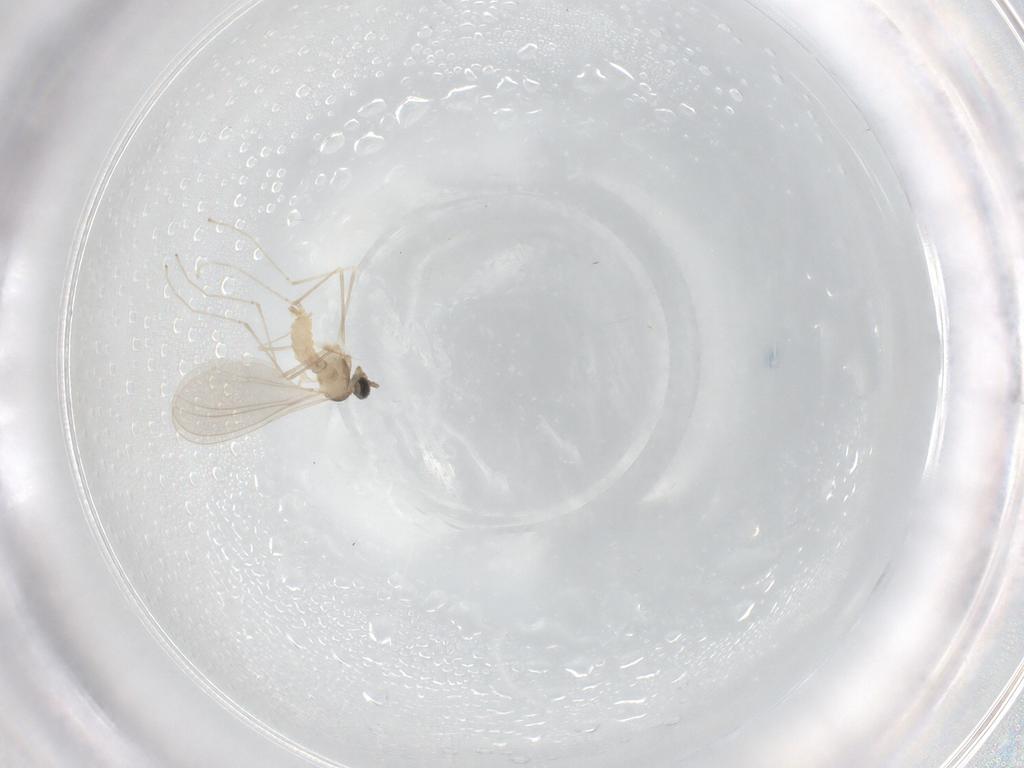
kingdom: Animalia
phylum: Arthropoda
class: Insecta
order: Diptera
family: Cecidomyiidae
